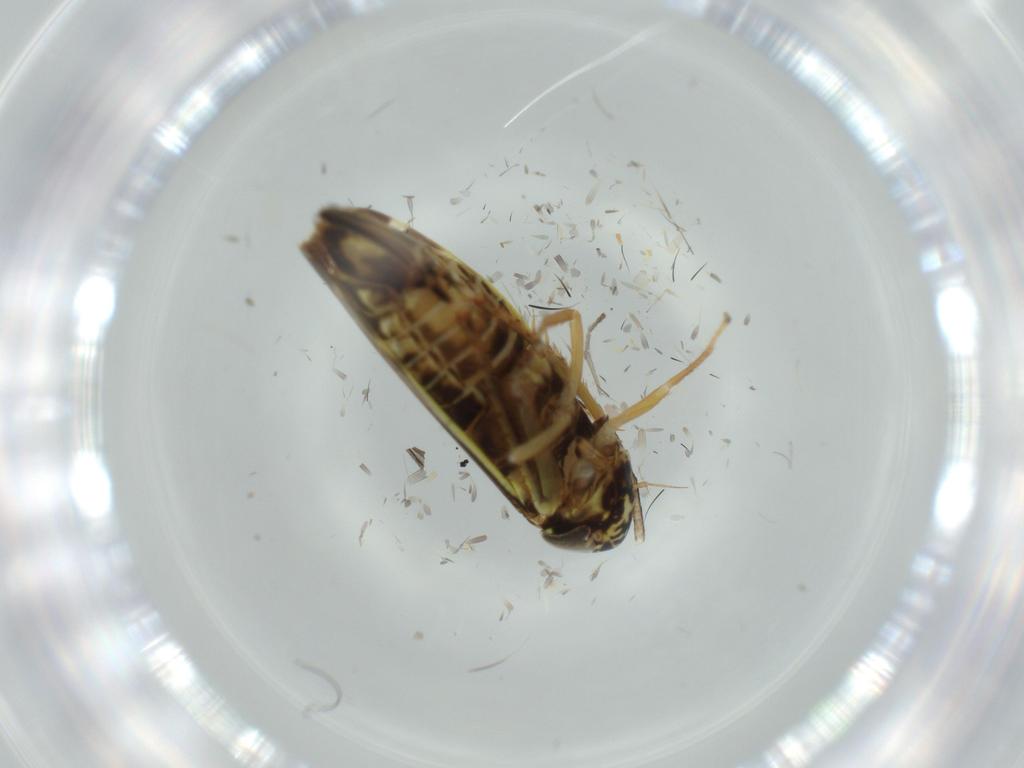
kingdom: Animalia
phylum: Arthropoda
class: Insecta
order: Hemiptera
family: Cicadellidae
